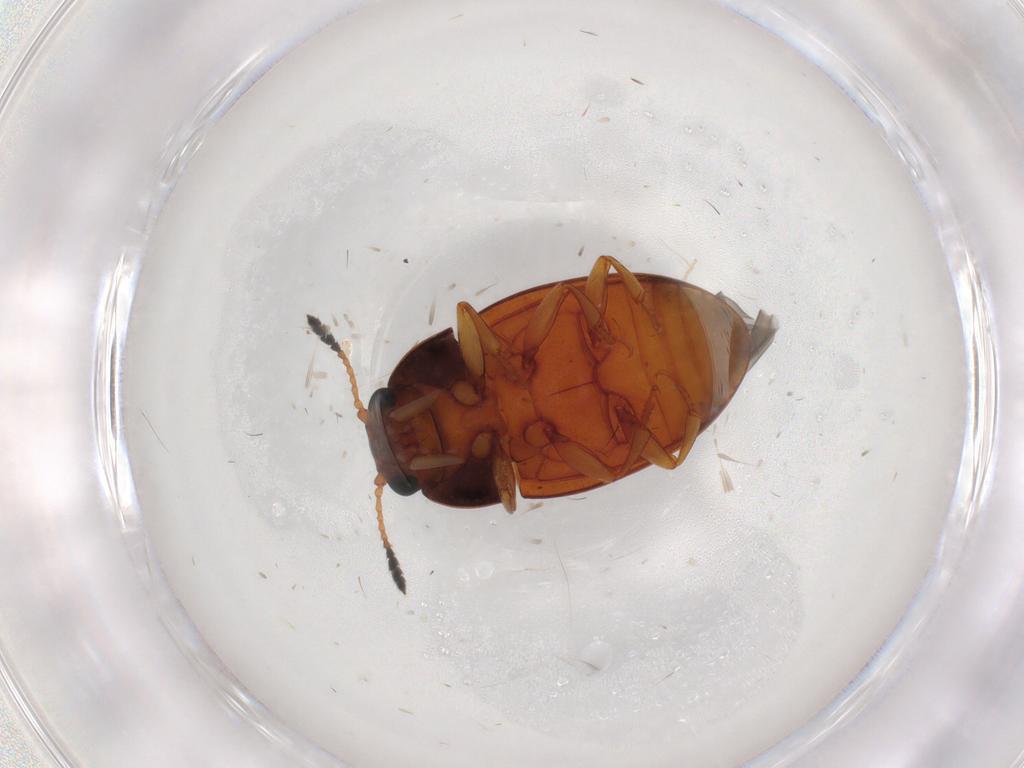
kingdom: Animalia
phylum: Arthropoda
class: Insecta
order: Coleoptera
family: Erotylidae
